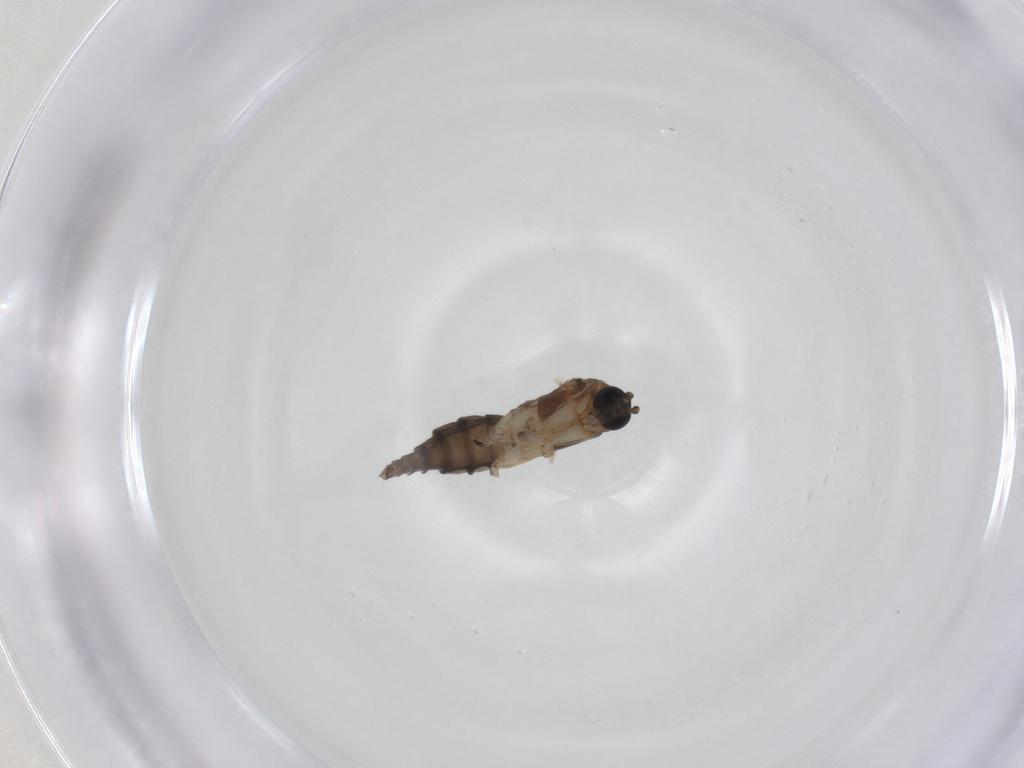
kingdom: Animalia
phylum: Arthropoda
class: Insecta
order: Diptera
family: Sciaridae
